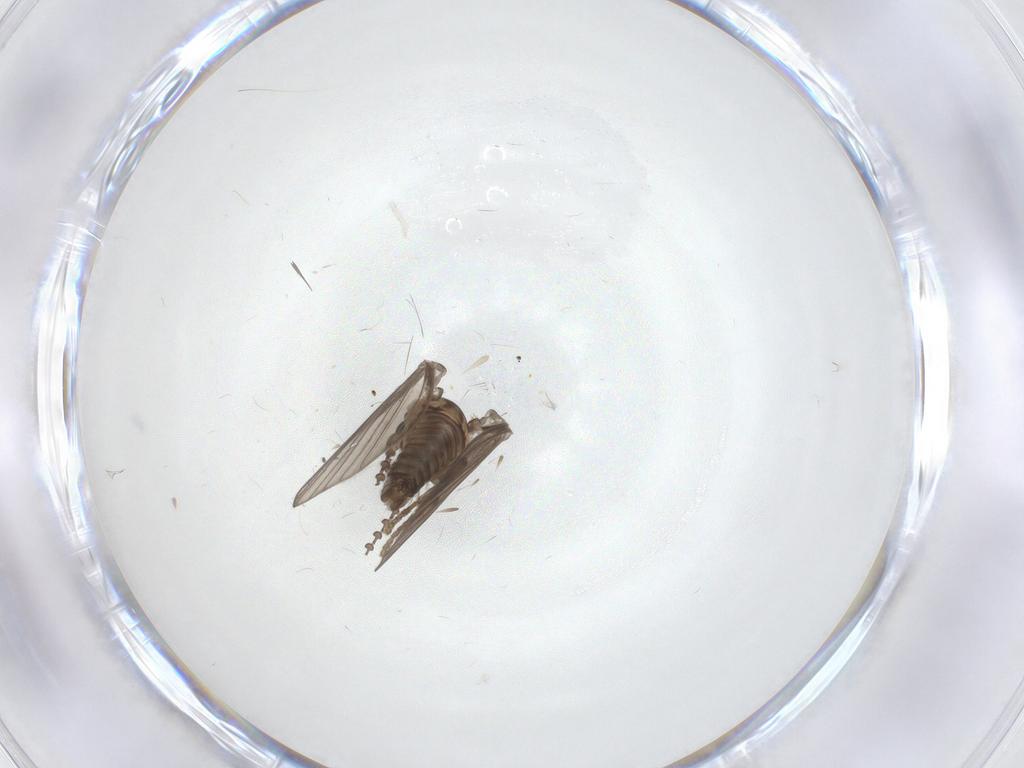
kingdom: Animalia
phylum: Arthropoda
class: Insecta
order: Diptera
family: Psychodidae
